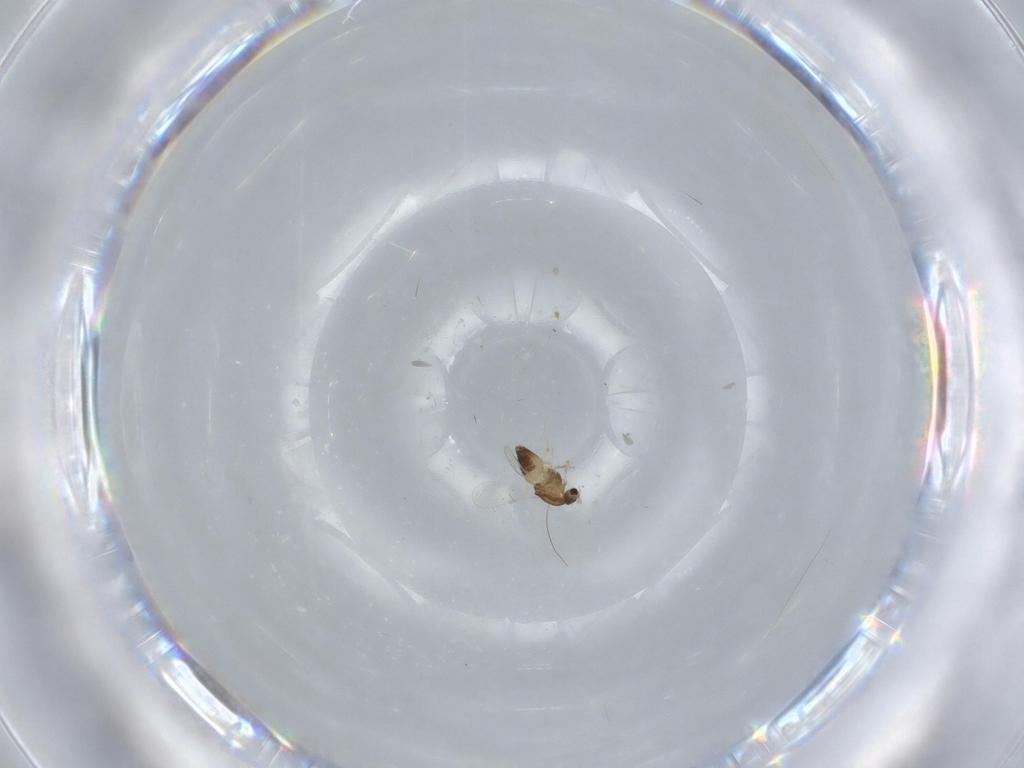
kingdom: Animalia
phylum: Arthropoda
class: Insecta
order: Diptera
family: Chironomidae
